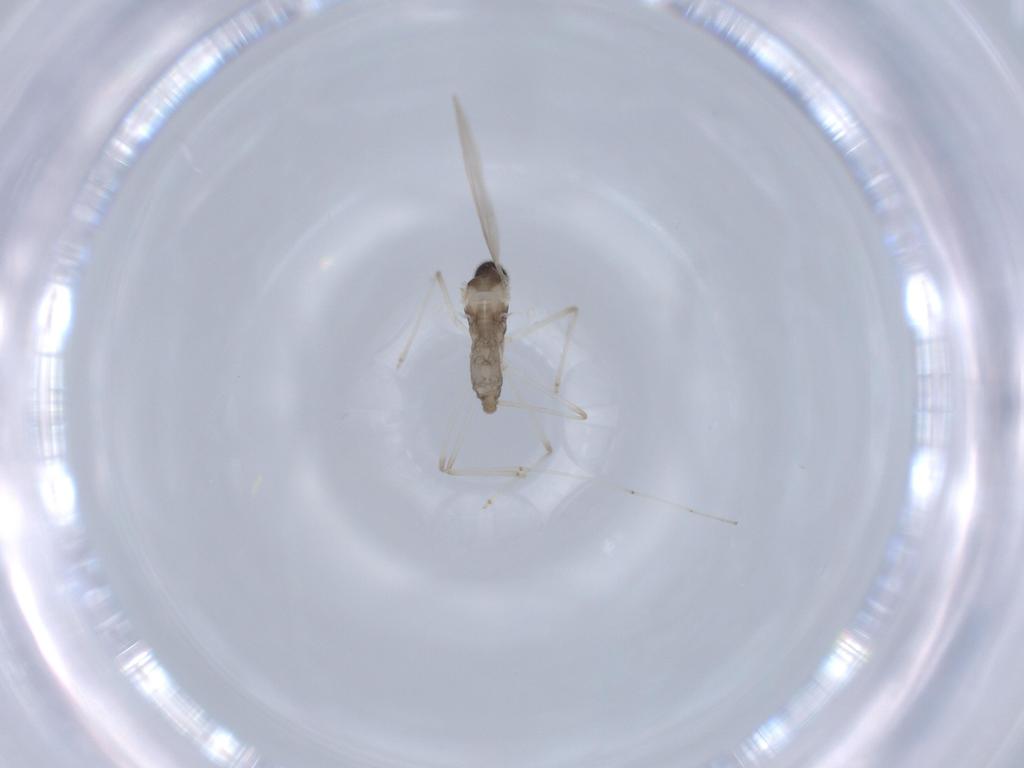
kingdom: Animalia
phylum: Arthropoda
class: Insecta
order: Diptera
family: Cecidomyiidae
